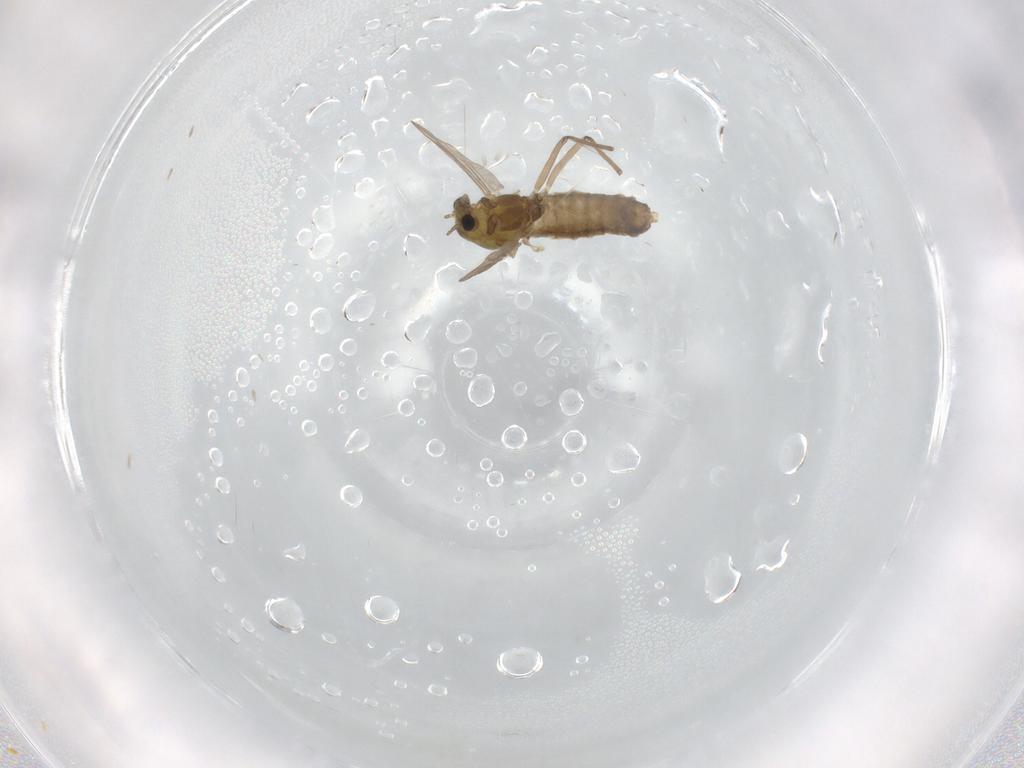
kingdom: Animalia
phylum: Arthropoda
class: Insecta
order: Diptera
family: Chironomidae
